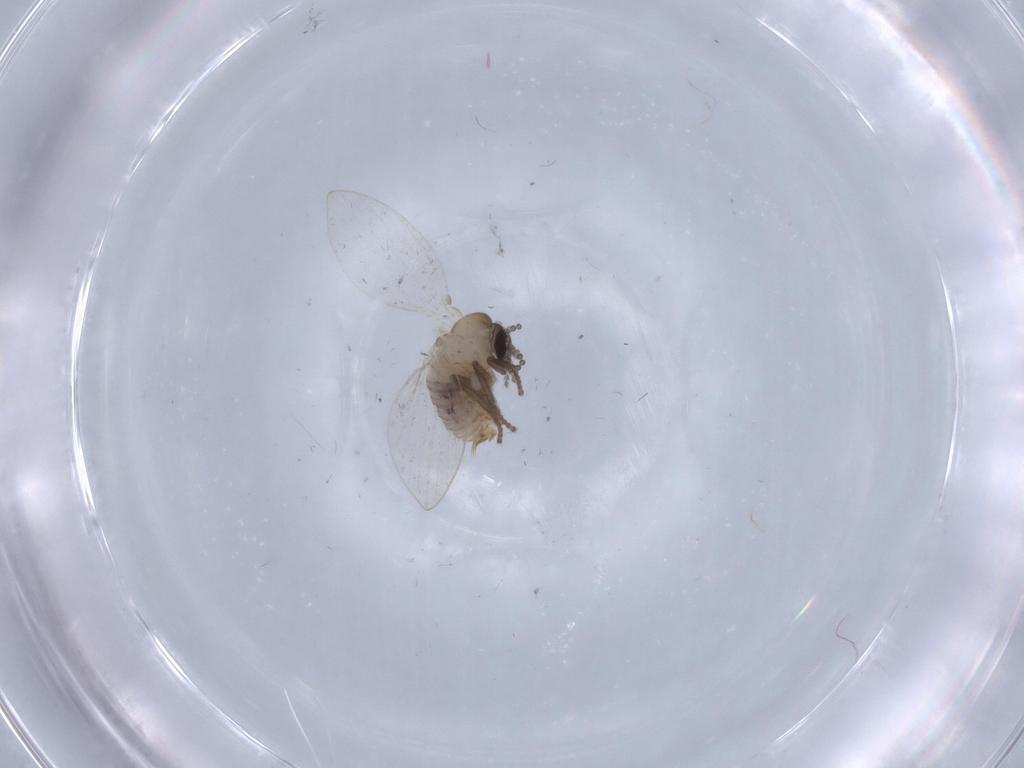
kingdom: Animalia
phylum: Arthropoda
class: Insecta
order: Diptera
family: Psychodidae
